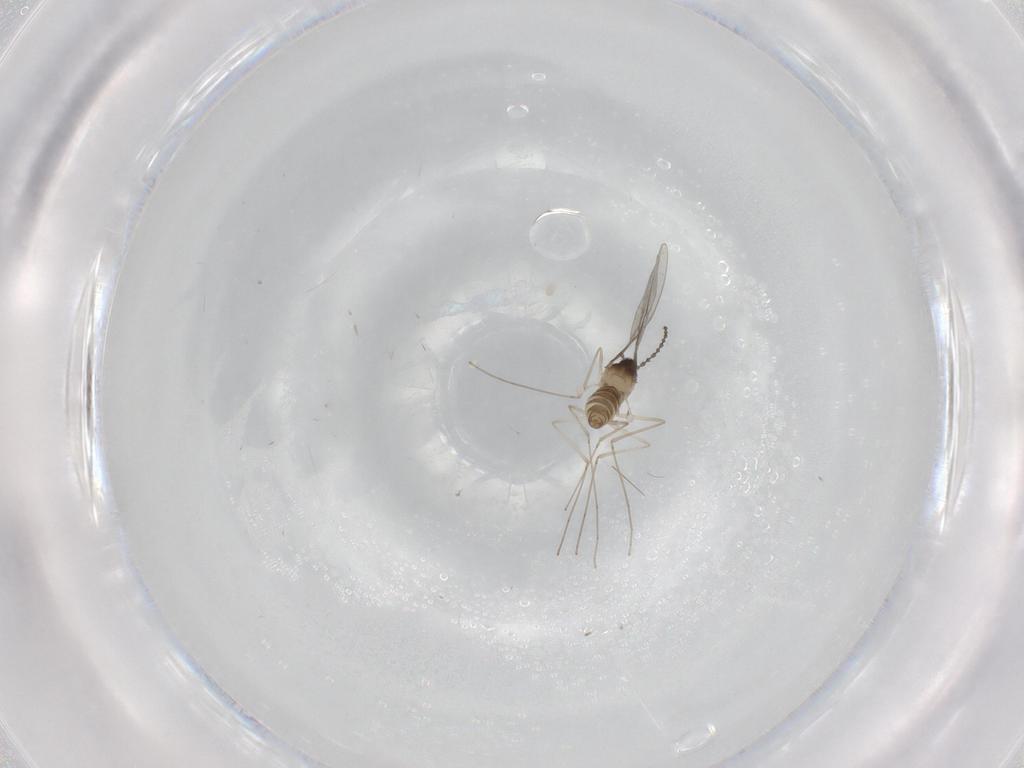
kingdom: Animalia
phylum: Arthropoda
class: Insecta
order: Diptera
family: Cecidomyiidae
